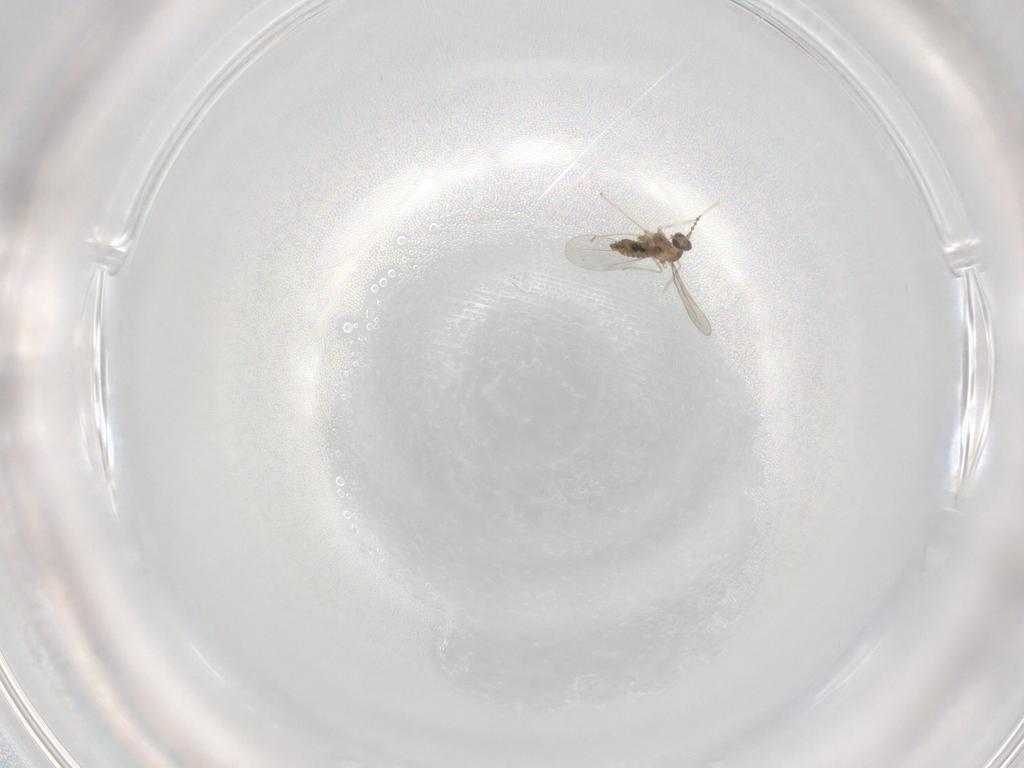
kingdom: Animalia
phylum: Arthropoda
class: Insecta
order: Diptera
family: Cecidomyiidae
